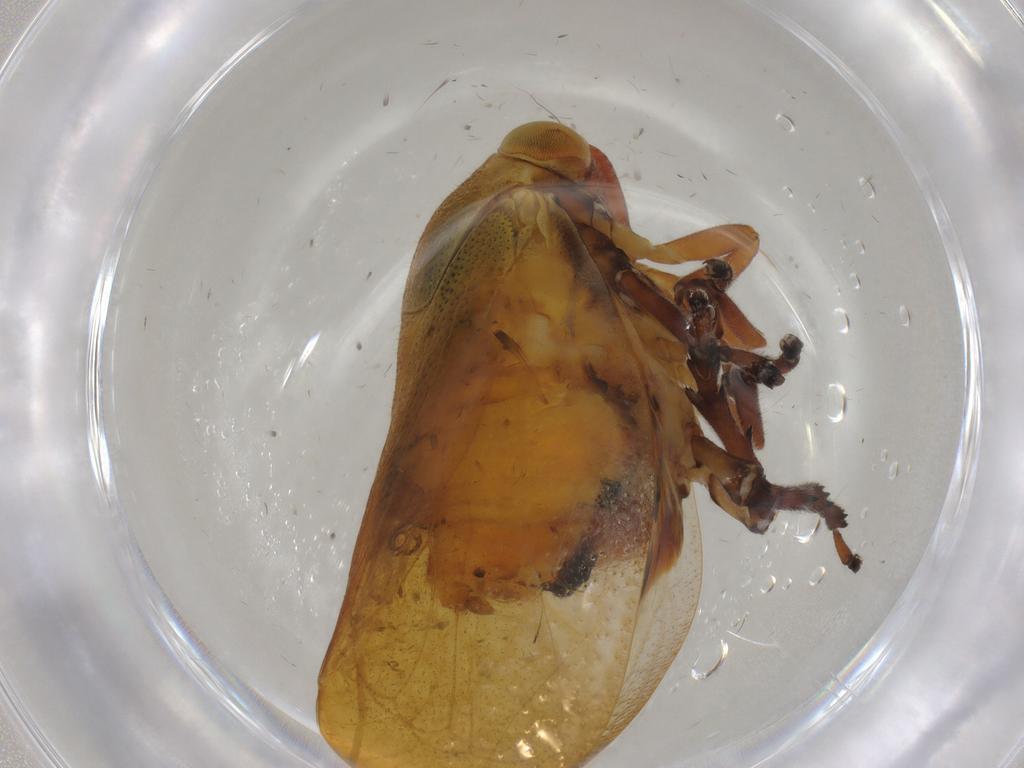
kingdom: Animalia
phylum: Arthropoda
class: Insecta
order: Hemiptera
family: Machaerotidae
